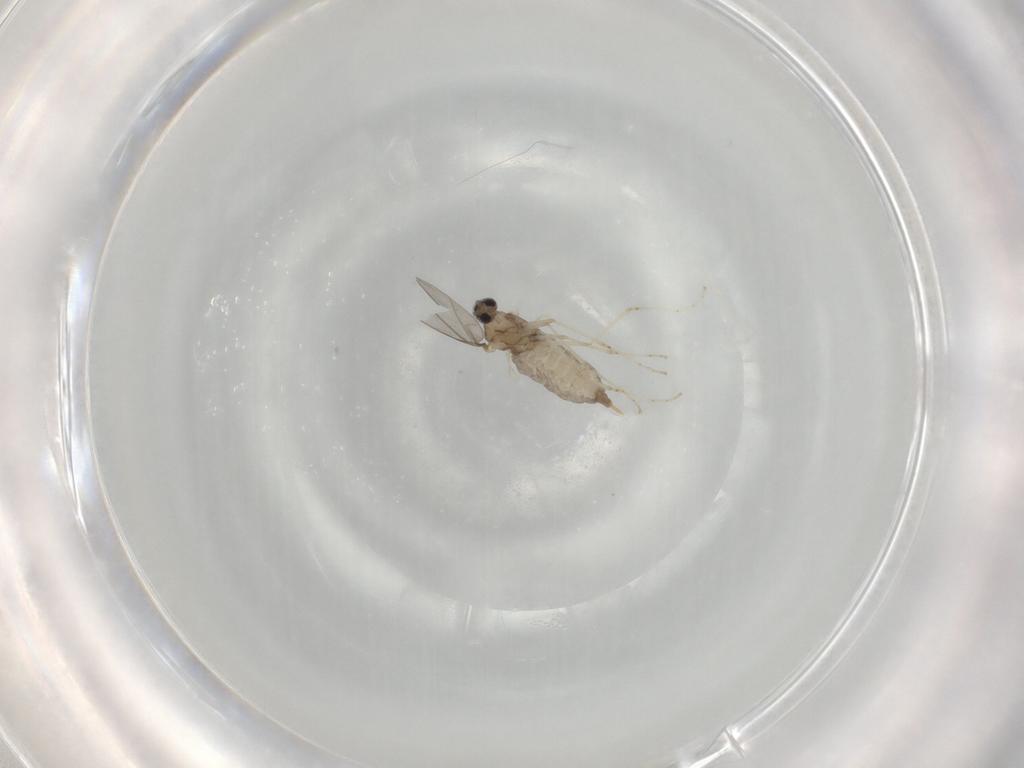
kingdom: Animalia
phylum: Arthropoda
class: Insecta
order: Diptera
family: Cecidomyiidae
